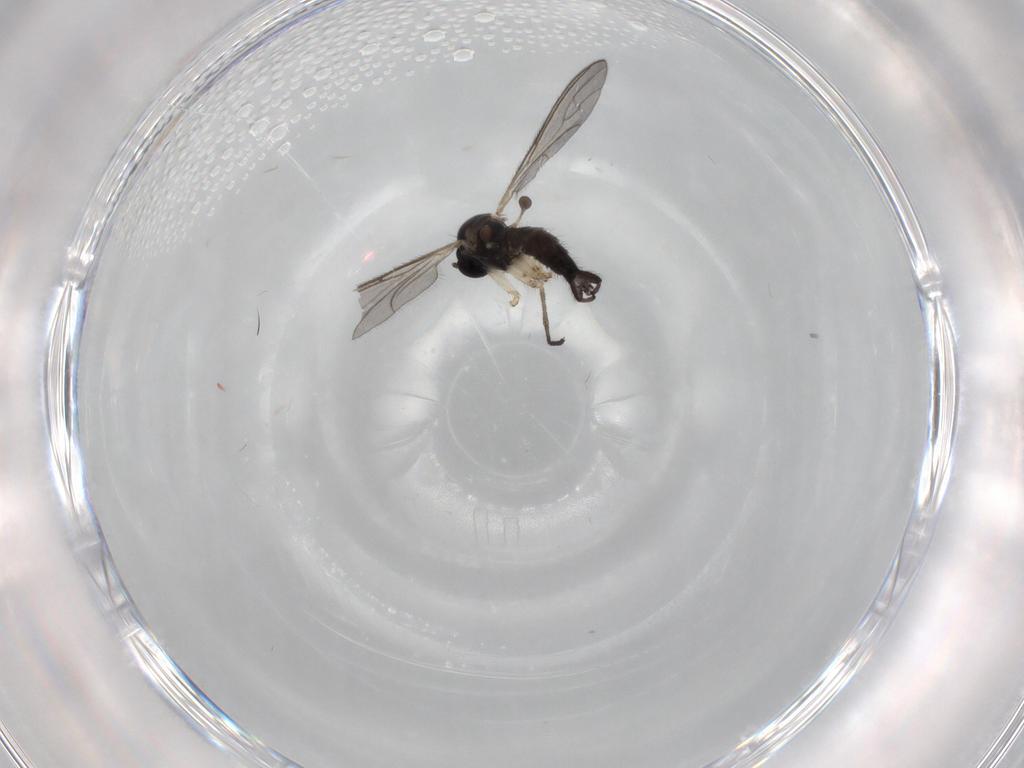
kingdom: Animalia
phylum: Arthropoda
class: Insecta
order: Diptera
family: Sciaridae
